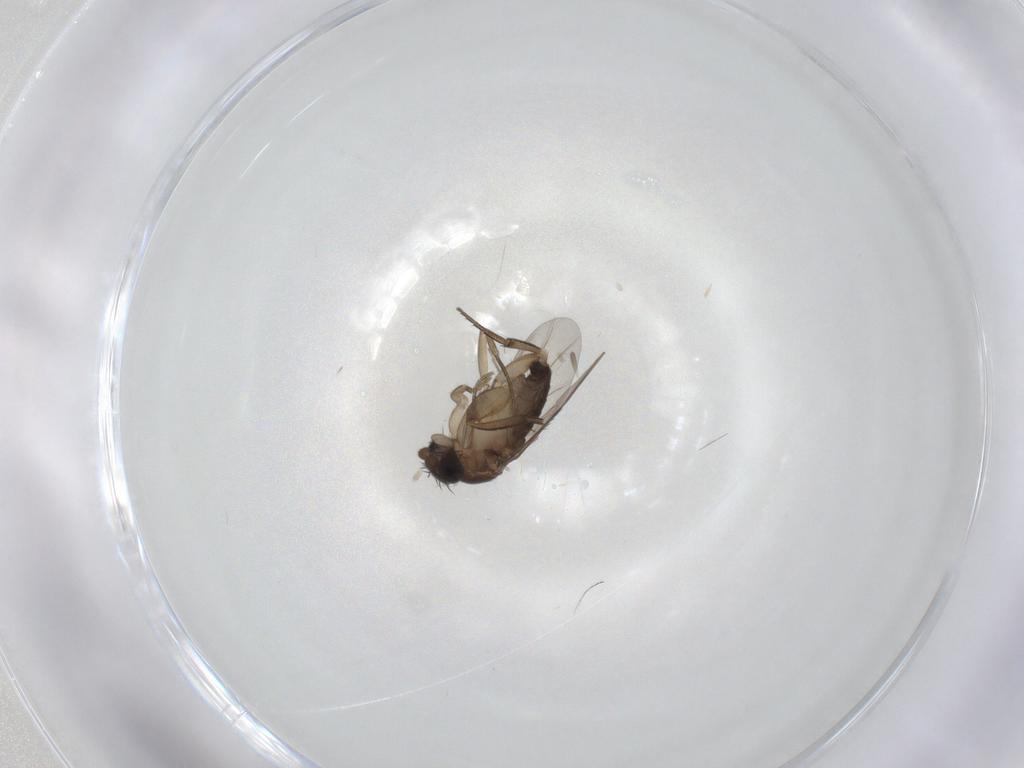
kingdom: Animalia
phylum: Arthropoda
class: Insecta
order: Diptera
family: Phoridae
